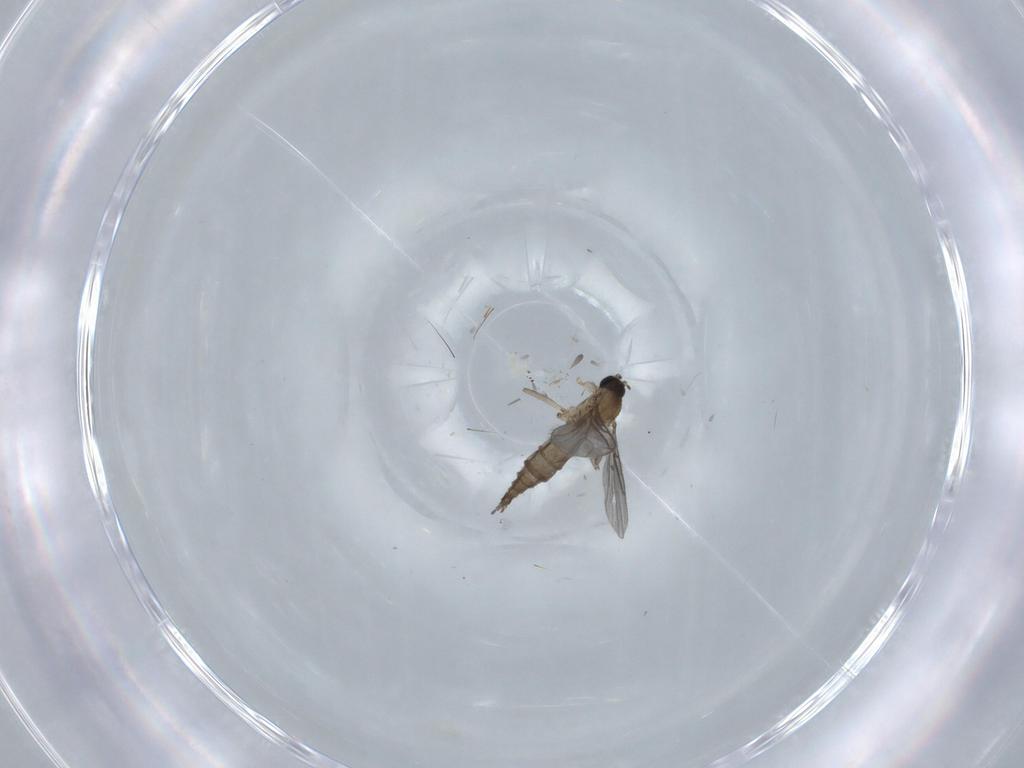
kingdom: Animalia
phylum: Arthropoda
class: Insecta
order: Diptera
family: Sciaridae
